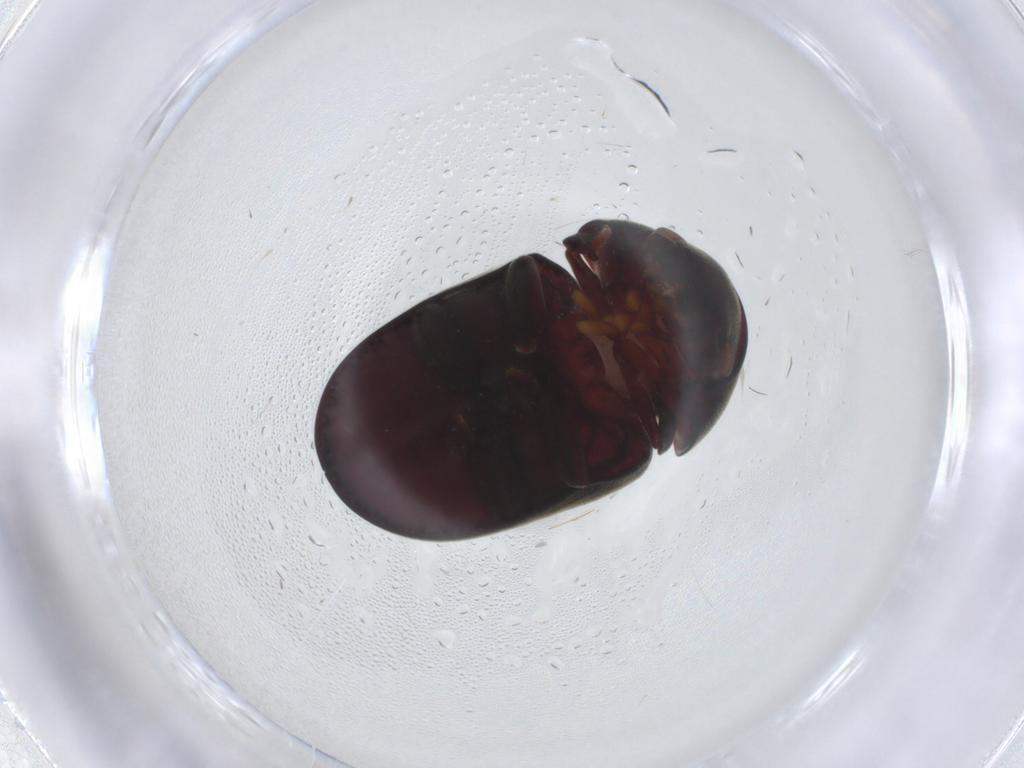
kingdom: Animalia
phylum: Arthropoda
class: Insecta
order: Coleoptera
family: Ptinidae
